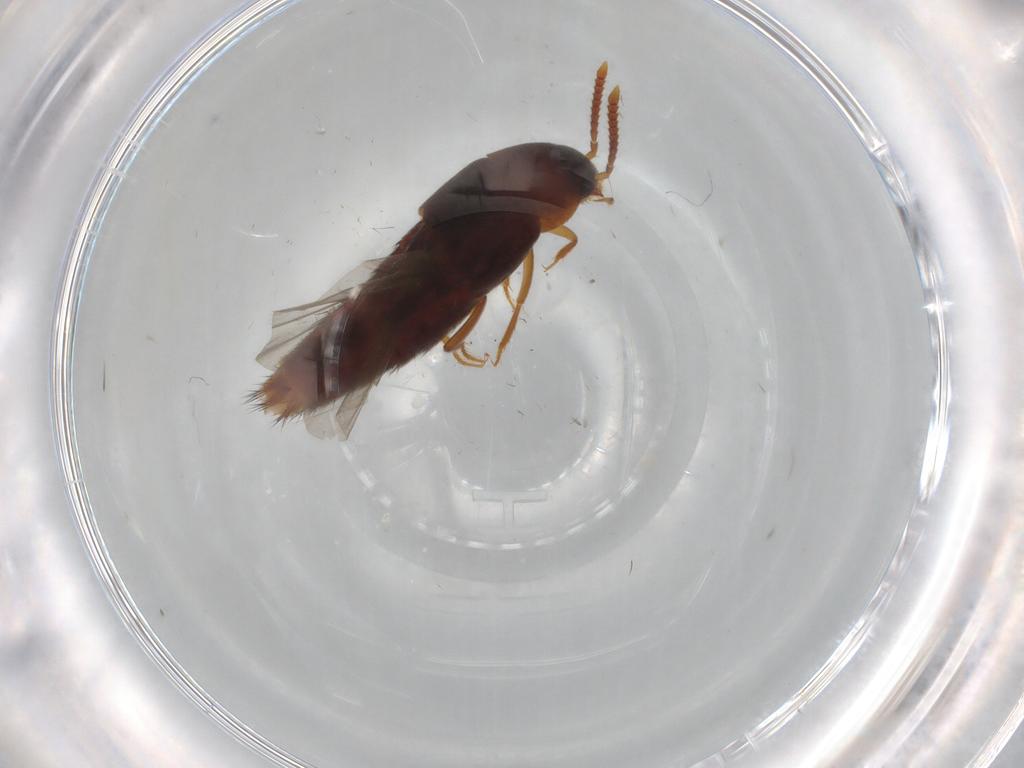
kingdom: Animalia
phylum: Arthropoda
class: Insecta
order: Coleoptera
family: Staphylinidae
